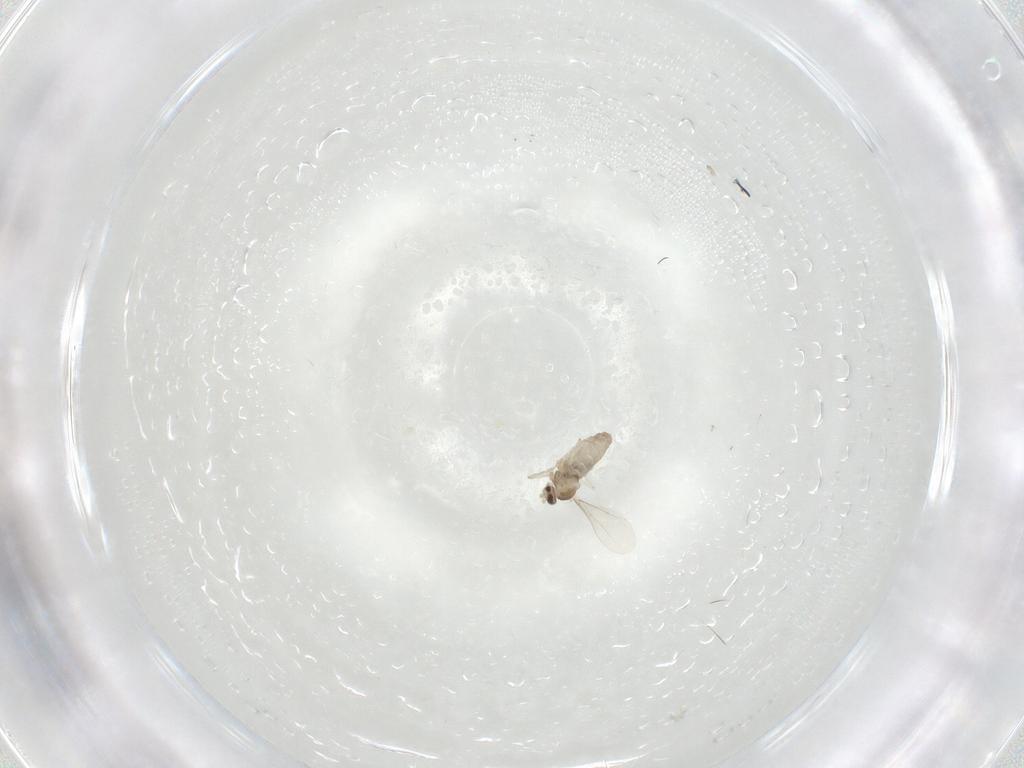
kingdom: Animalia
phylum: Arthropoda
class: Insecta
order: Diptera
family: Cecidomyiidae
